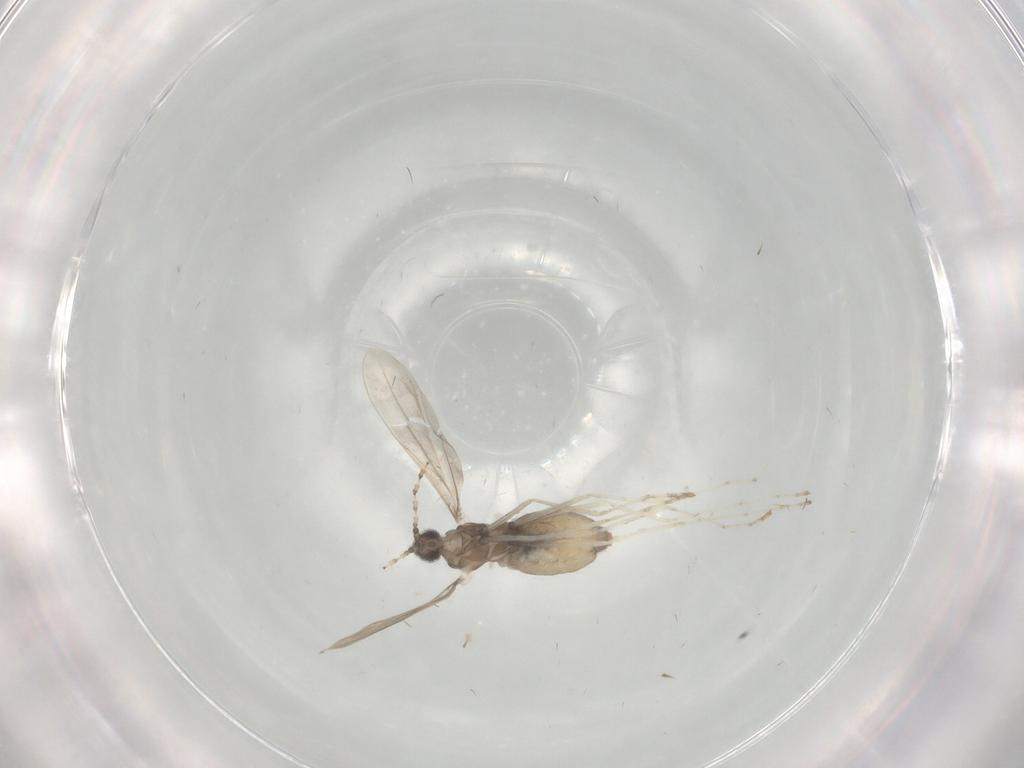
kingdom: Animalia
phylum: Arthropoda
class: Insecta
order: Diptera
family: Cecidomyiidae
